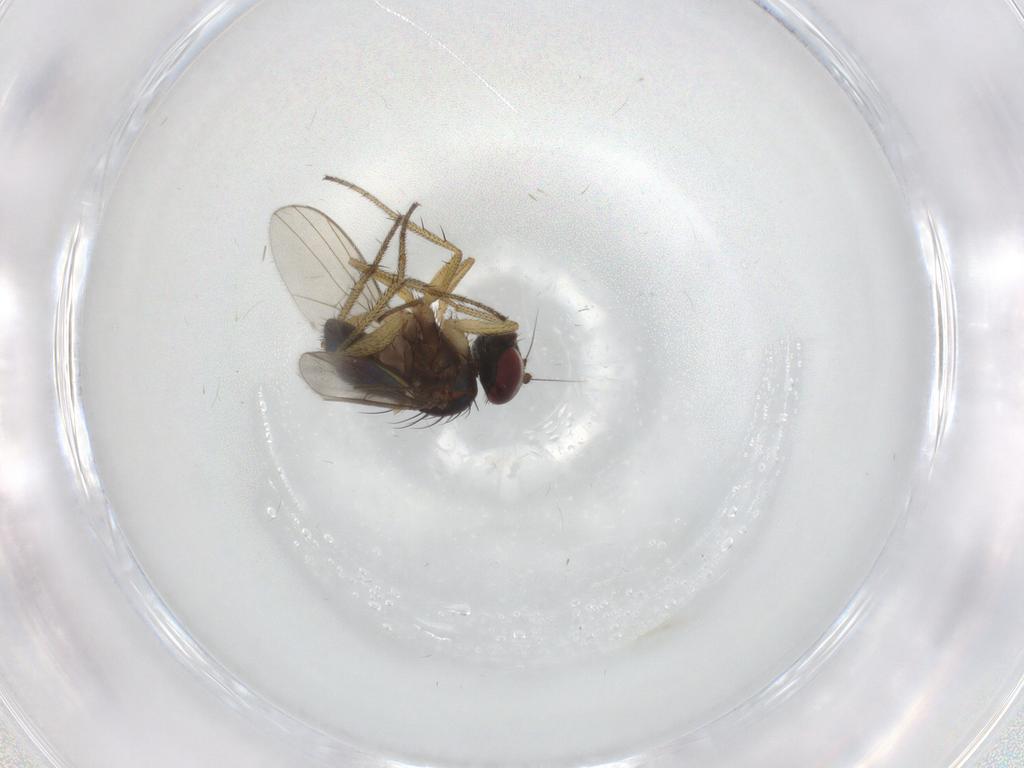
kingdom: Animalia
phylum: Arthropoda
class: Insecta
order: Diptera
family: Chironomidae
